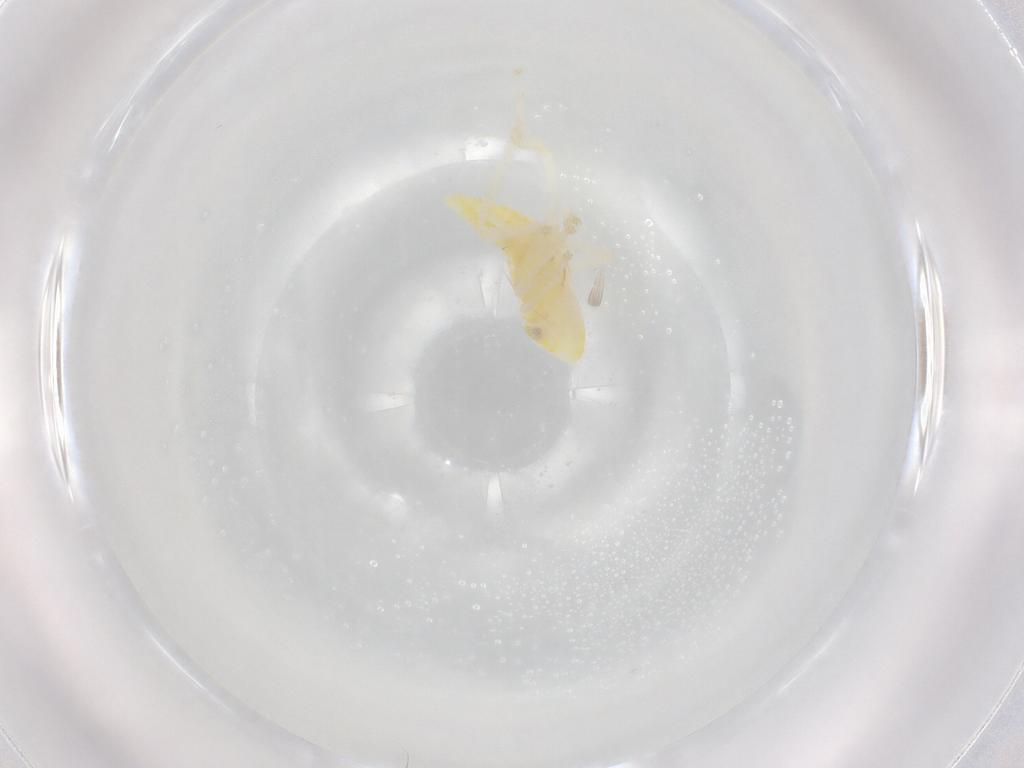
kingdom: Animalia
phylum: Arthropoda
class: Insecta
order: Hemiptera
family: Cicadellidae
